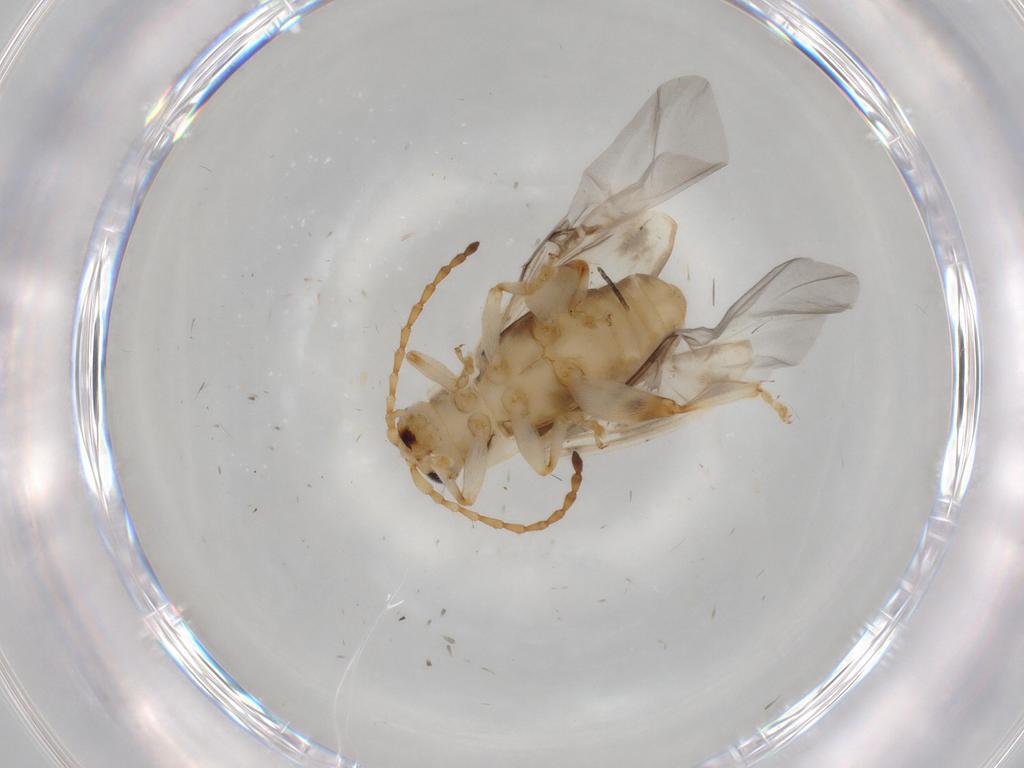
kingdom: Animalia
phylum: Arthropoda
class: Insecta
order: Coleoptera
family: Chrysomelidae
